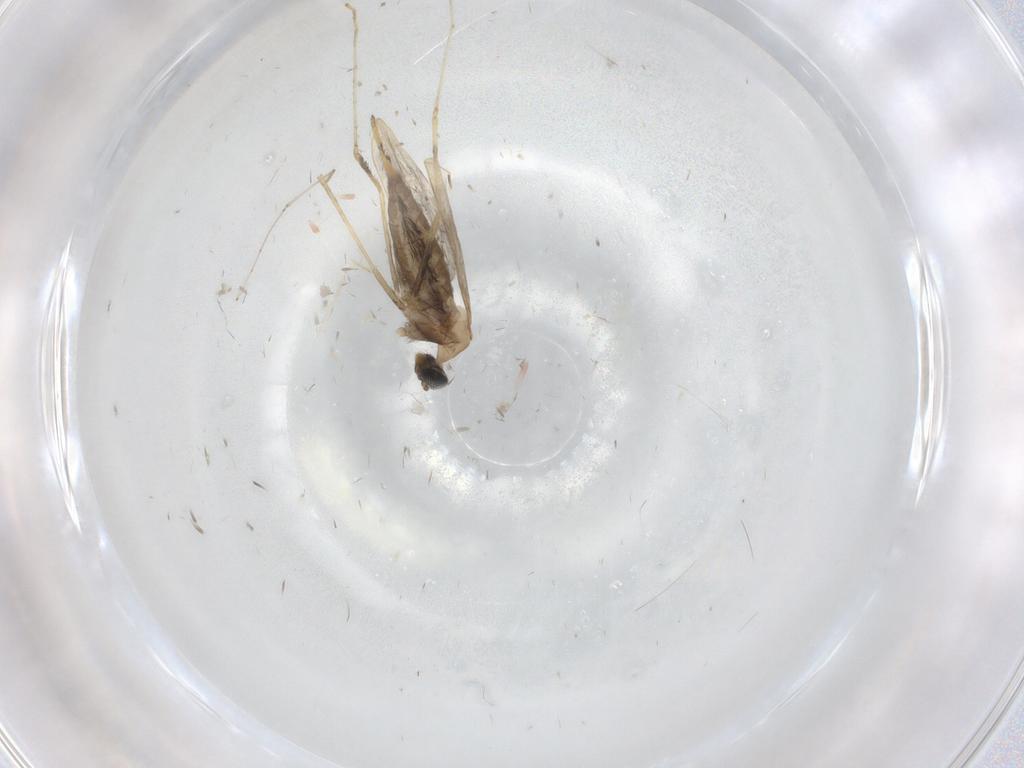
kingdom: Animalia
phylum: Arthropoda
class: Insecta
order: Diptera
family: Cecidomyiidae
